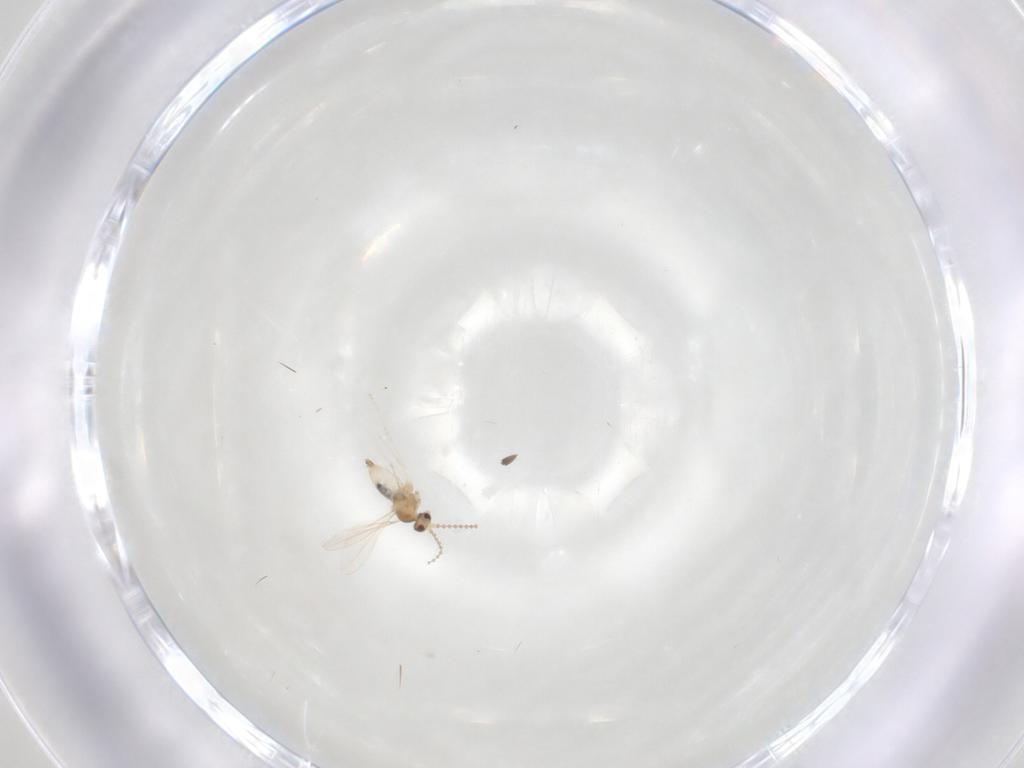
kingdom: Animalia
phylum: Arthropoda
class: Insecta
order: Diptera
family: Cecidomyiidae
